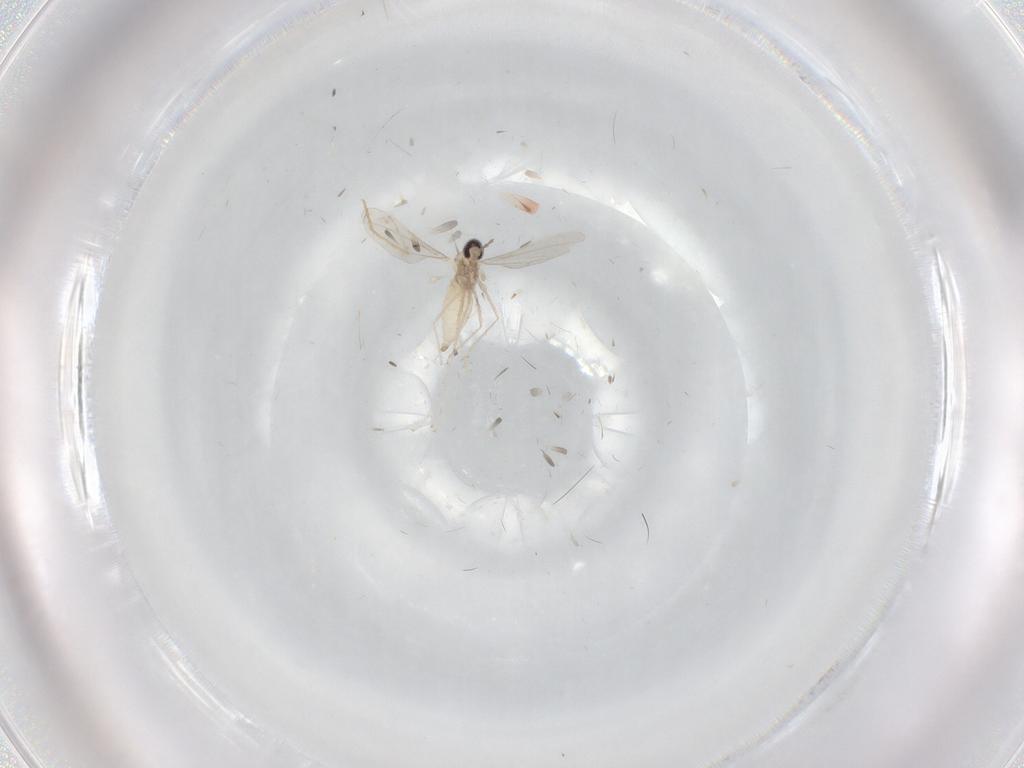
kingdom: Animalia
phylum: Arthropoda
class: Insecta
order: Diptera
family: Chironomidae
